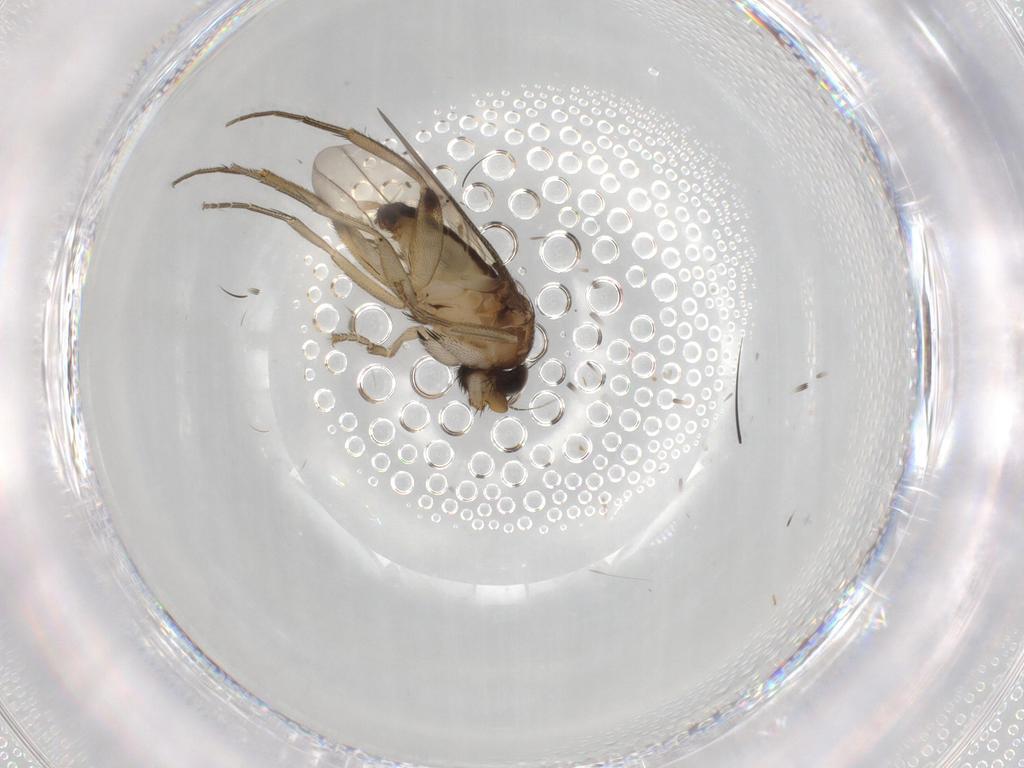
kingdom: Animalia
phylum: Arthropoda
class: Insecta
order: Diptera
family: Phoridae
